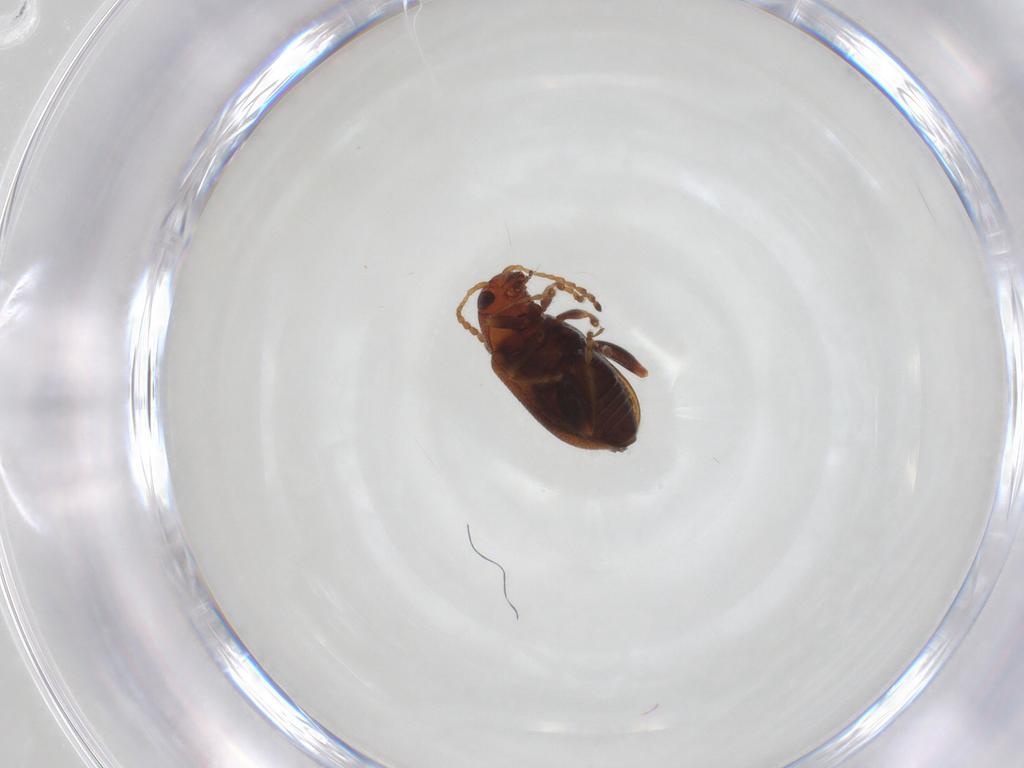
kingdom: Animalia
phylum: Arthropoda
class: Insecta
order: Coleoptera
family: Chrysomelidae
